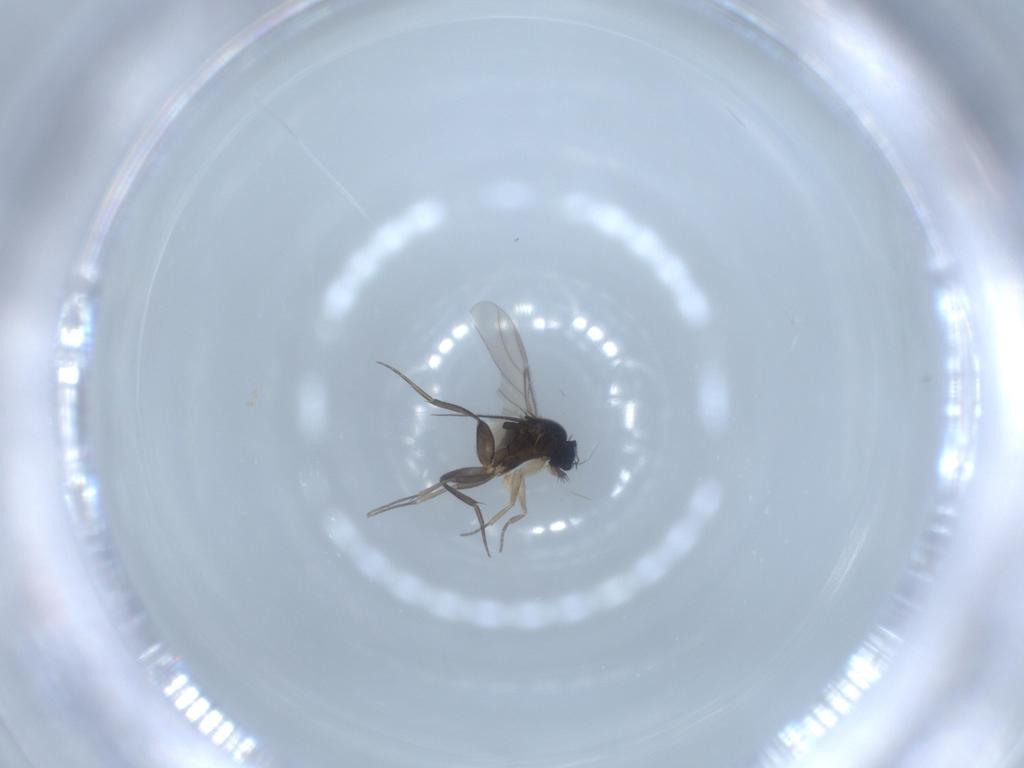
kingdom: Animalia
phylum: Arthropoda
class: Insecta
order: Diptera
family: Phoridae
